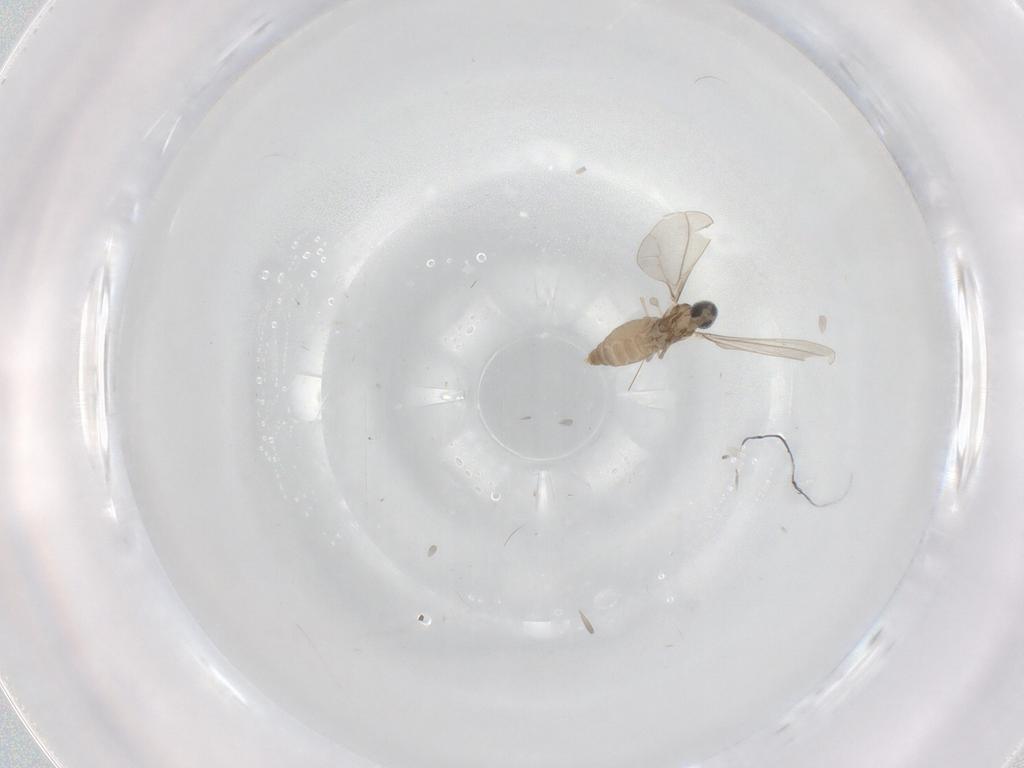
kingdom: Animalia
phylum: Arthropoda
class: Insecta
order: Diptera
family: Cecidomyiidae
